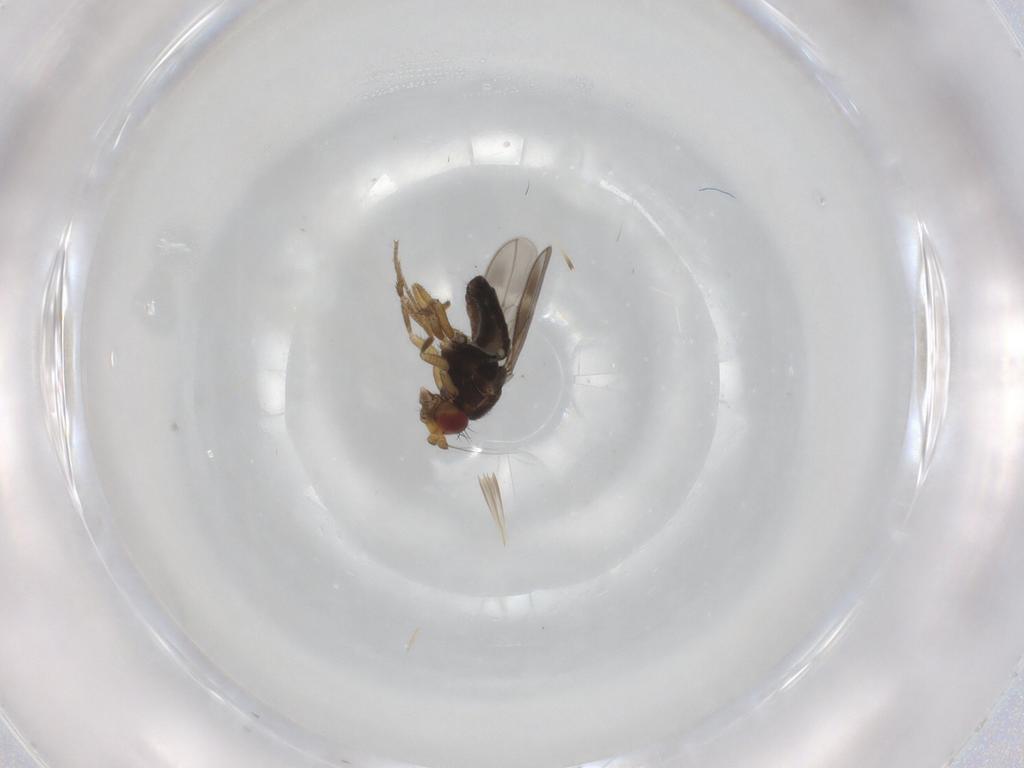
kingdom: Animalia
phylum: Arthropoda
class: Insecta
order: Diptera
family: Sphaeroceridae
